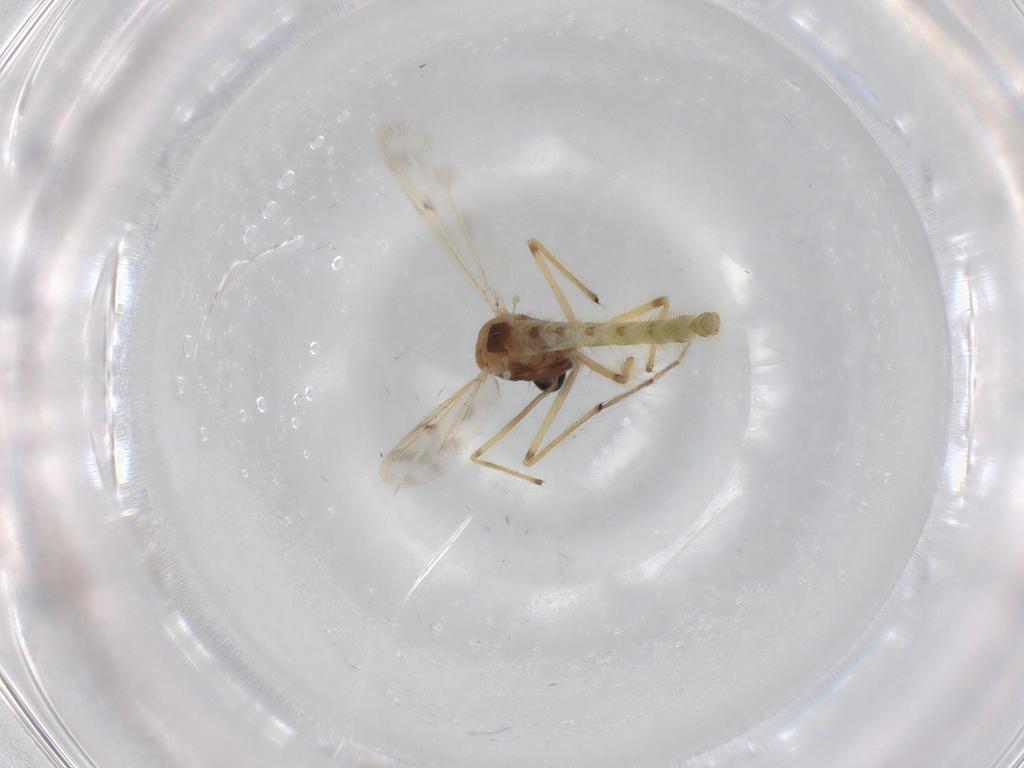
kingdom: Animalia
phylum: Arthropoda
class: Insecta
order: Diptera
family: Chironomidae
